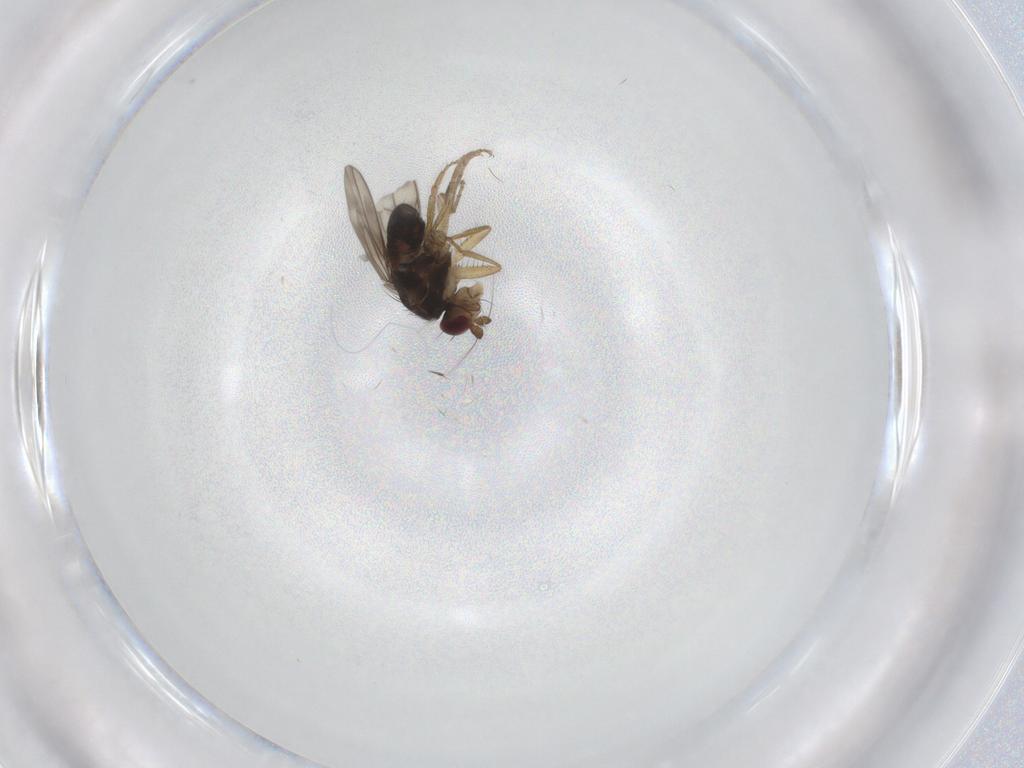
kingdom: Animalia
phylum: Arthropoda
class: Insecta
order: Diptera
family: Sphaeroceridae
